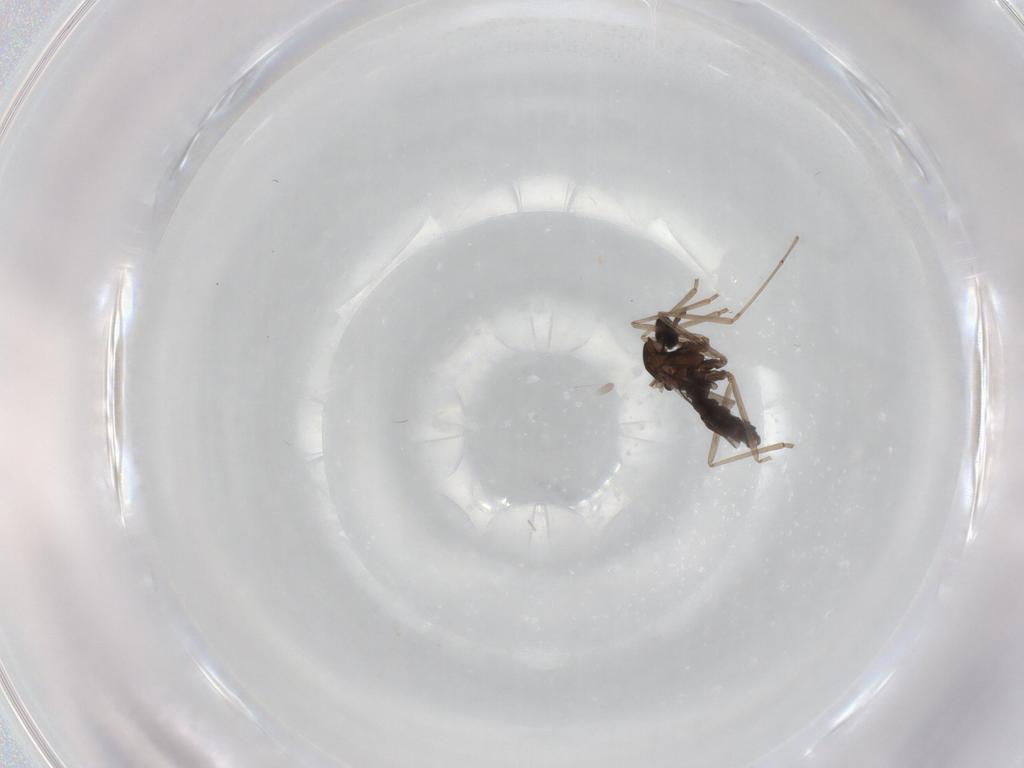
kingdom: Animalia
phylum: Arthropoda
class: Insecta
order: Diptera
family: Cecidomyiidae
